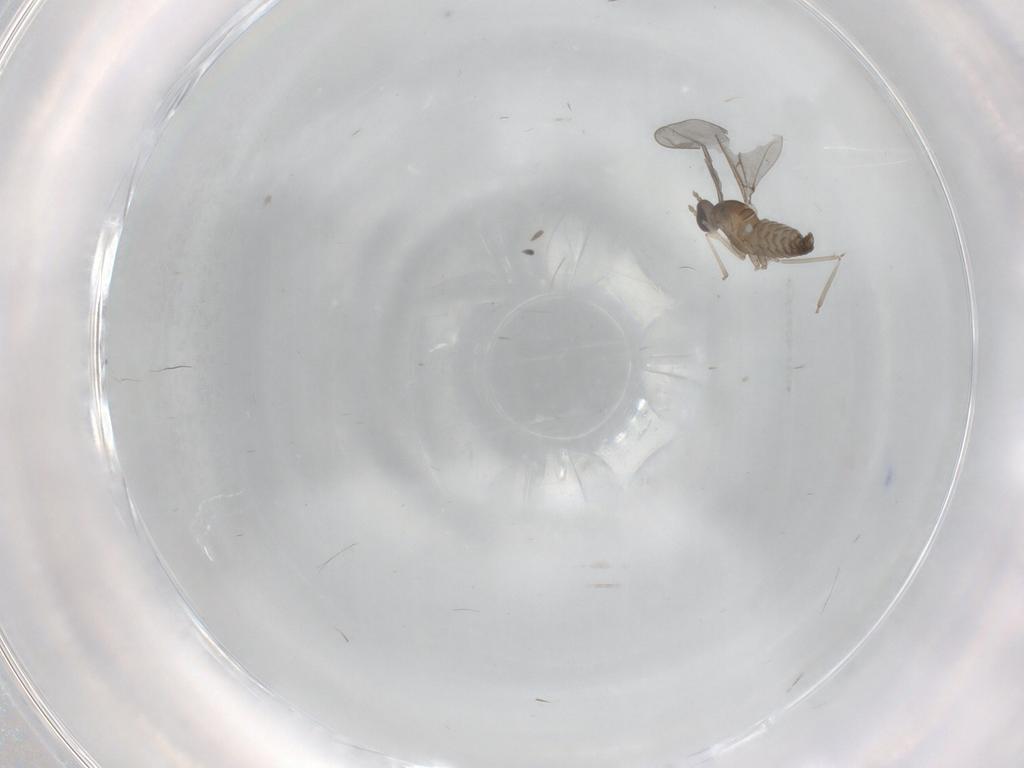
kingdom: Animalia
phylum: Arthropoda
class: Insecta
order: Diptera
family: Cecidomyiidae
